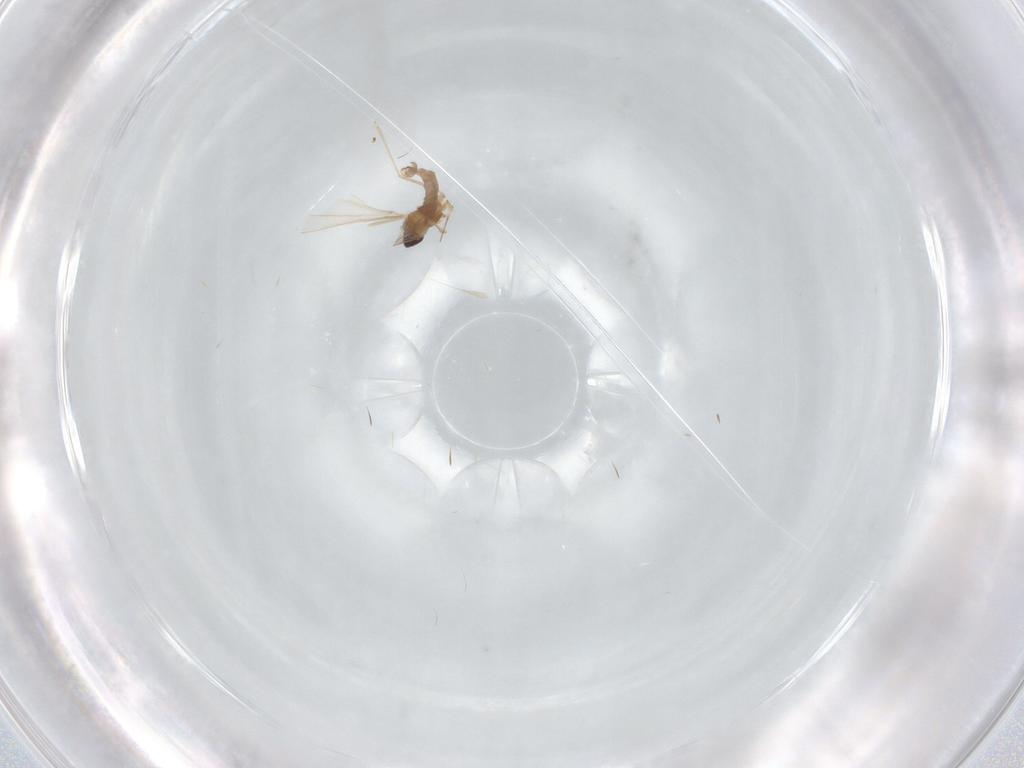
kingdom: Animalia
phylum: Arthropoda
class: Insecta
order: Diptera
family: Cecidomyiidae
